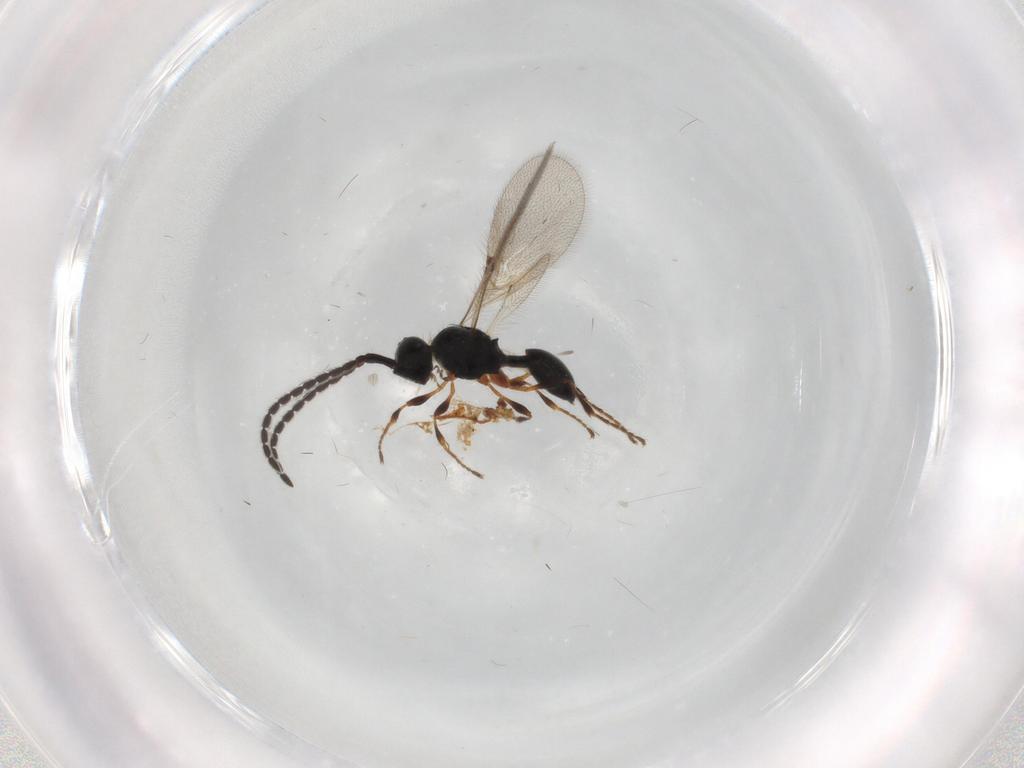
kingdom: Animalia
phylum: Arthropoda
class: Insecta
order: Hymenoptera
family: Diapriidae
